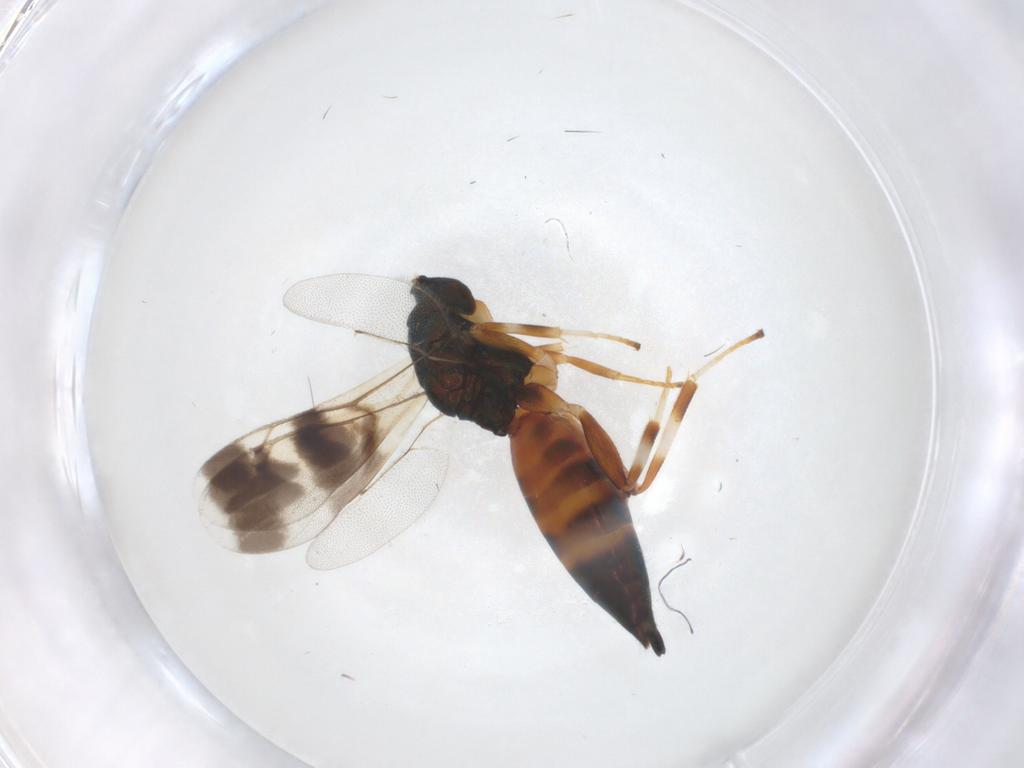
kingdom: Animalia
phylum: Arthropoda
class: Insecta
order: Hymenoptera
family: Pteromalidae
